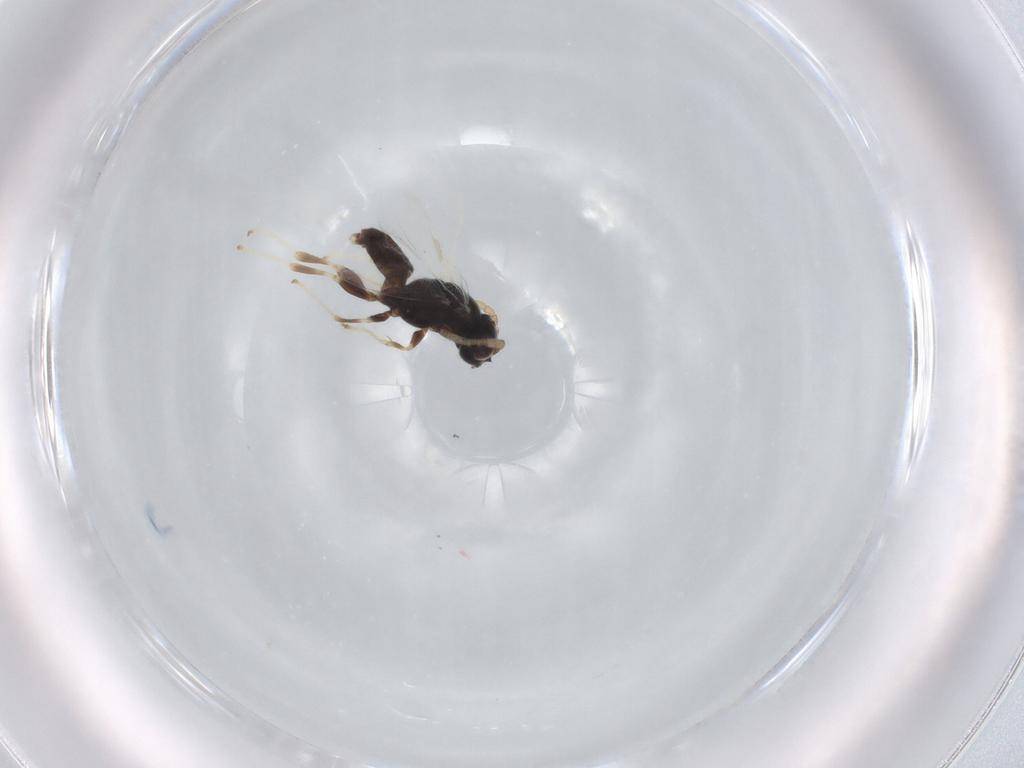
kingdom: Animalia
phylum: Arthropoda
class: Insecta
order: Hymenoptera
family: Dryinidae
